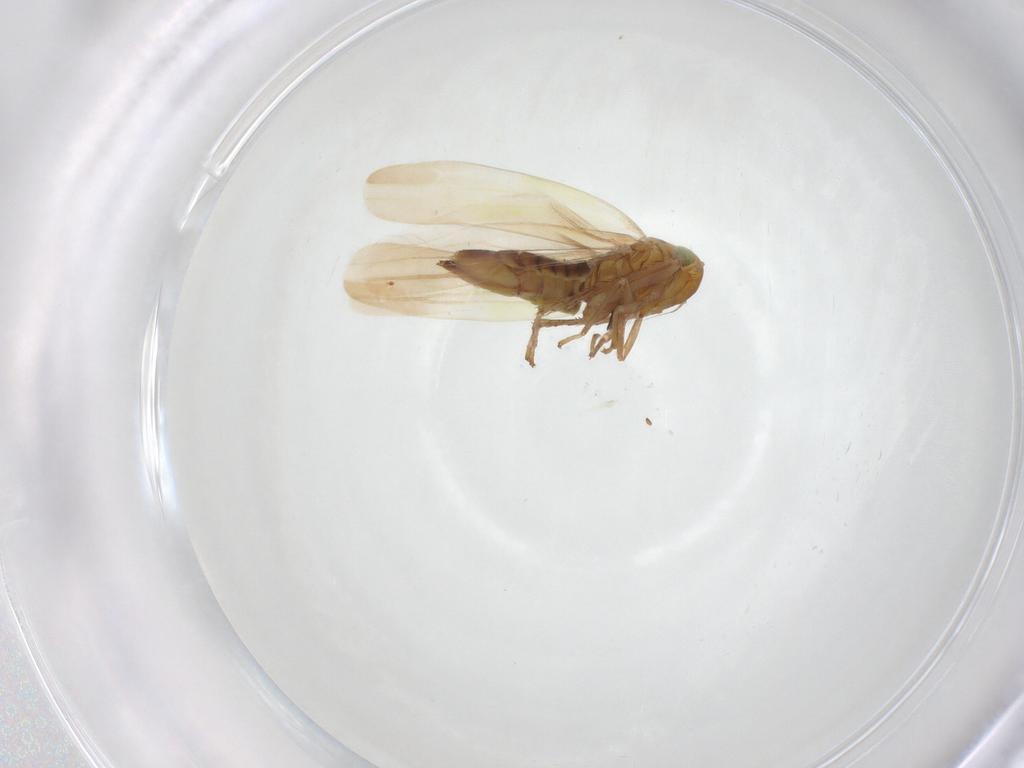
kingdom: Animalia
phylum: Arthropoda
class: Insecta
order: Hemiptera
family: Cicadellidae
